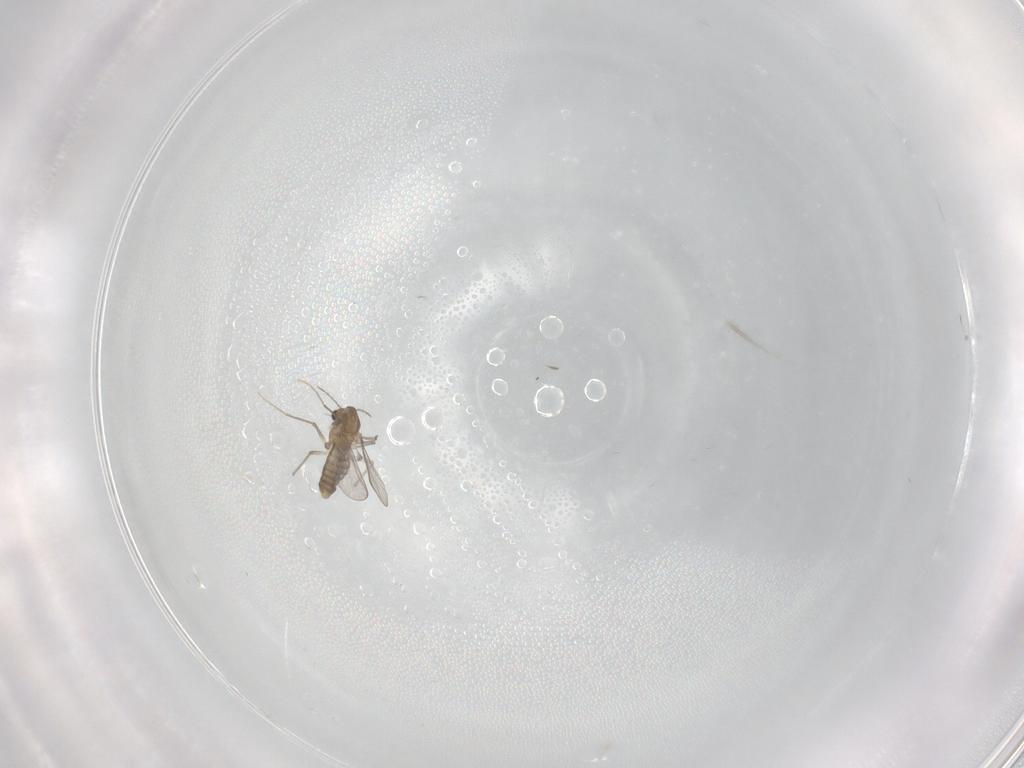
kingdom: Animalia
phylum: Arthropoda
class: Insecta
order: Diptera
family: Chironomidae
